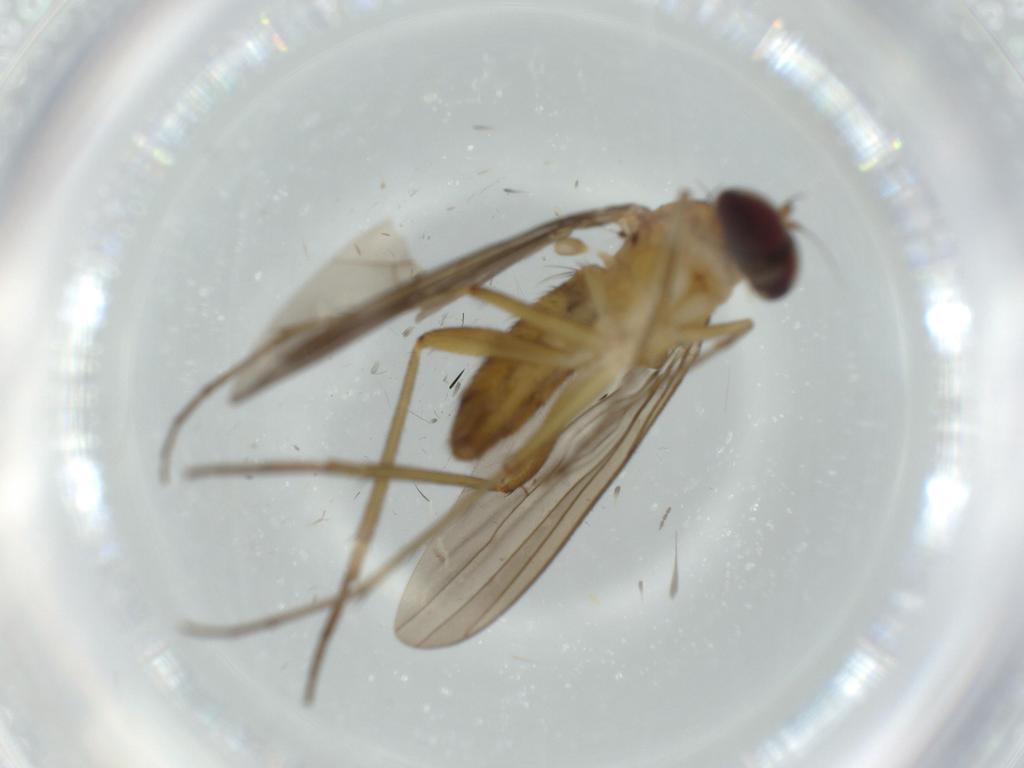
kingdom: Animalia
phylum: Arthropoda
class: Insecta
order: Diptera
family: Dolichopodidae
